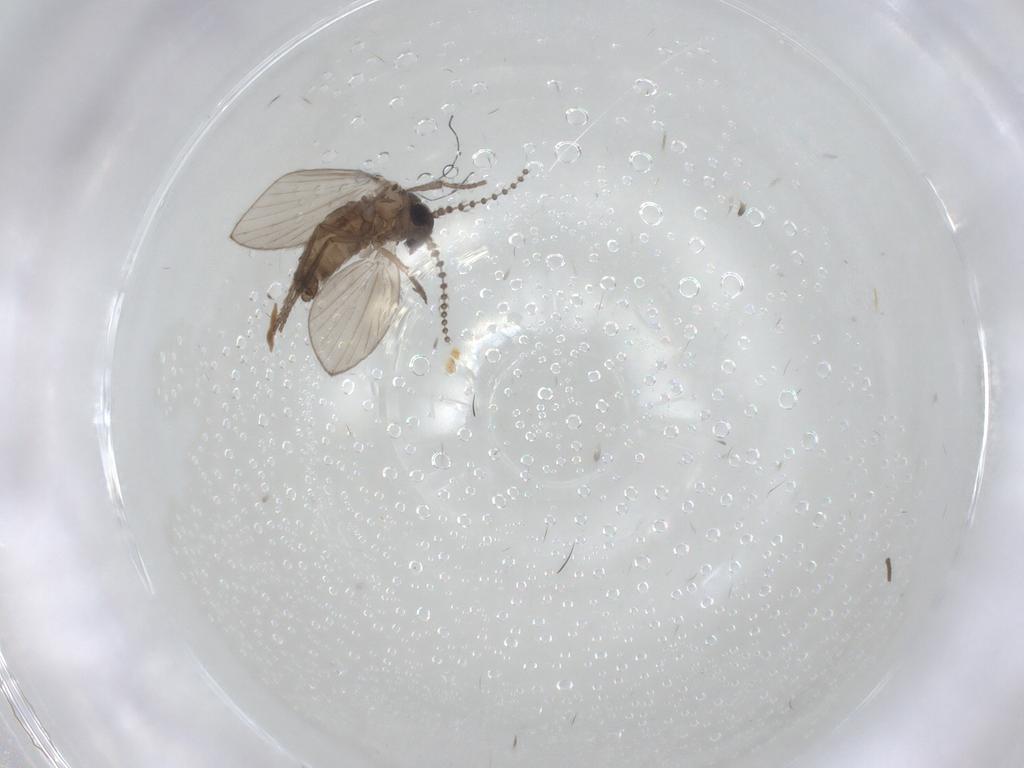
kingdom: Animalia
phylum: Arthropoda
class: Insecta
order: Diptera
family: Psychodidae
